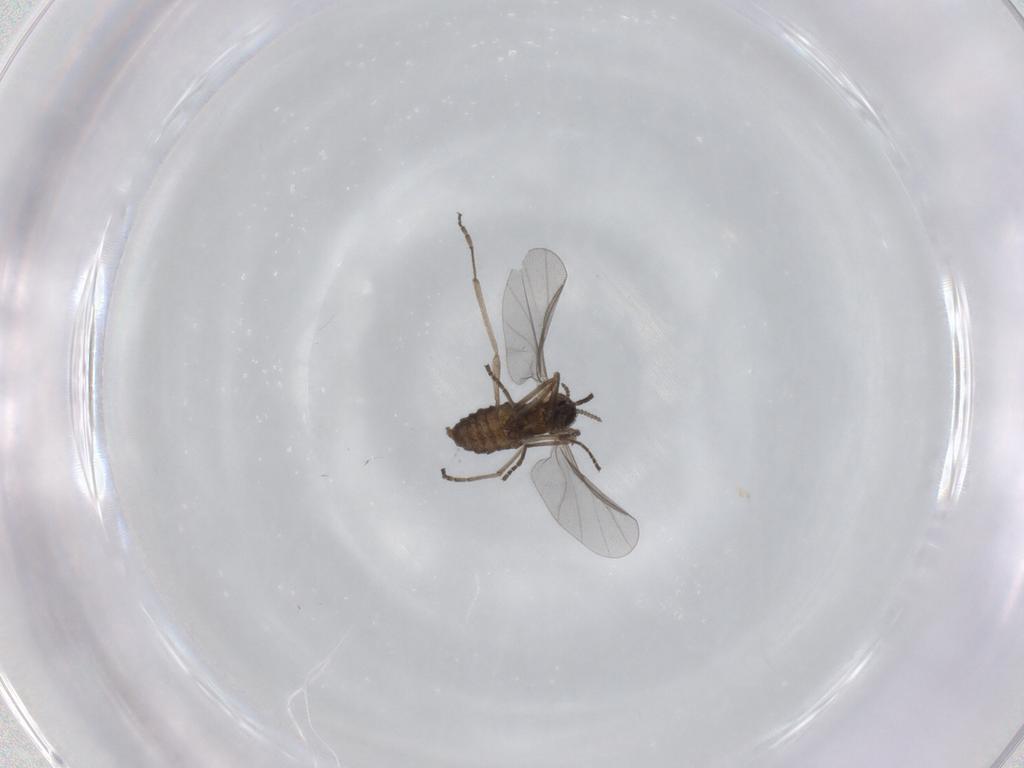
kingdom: Animalia
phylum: Arthropoda
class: Insecta
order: Diptera
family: Cecidomyiidae
